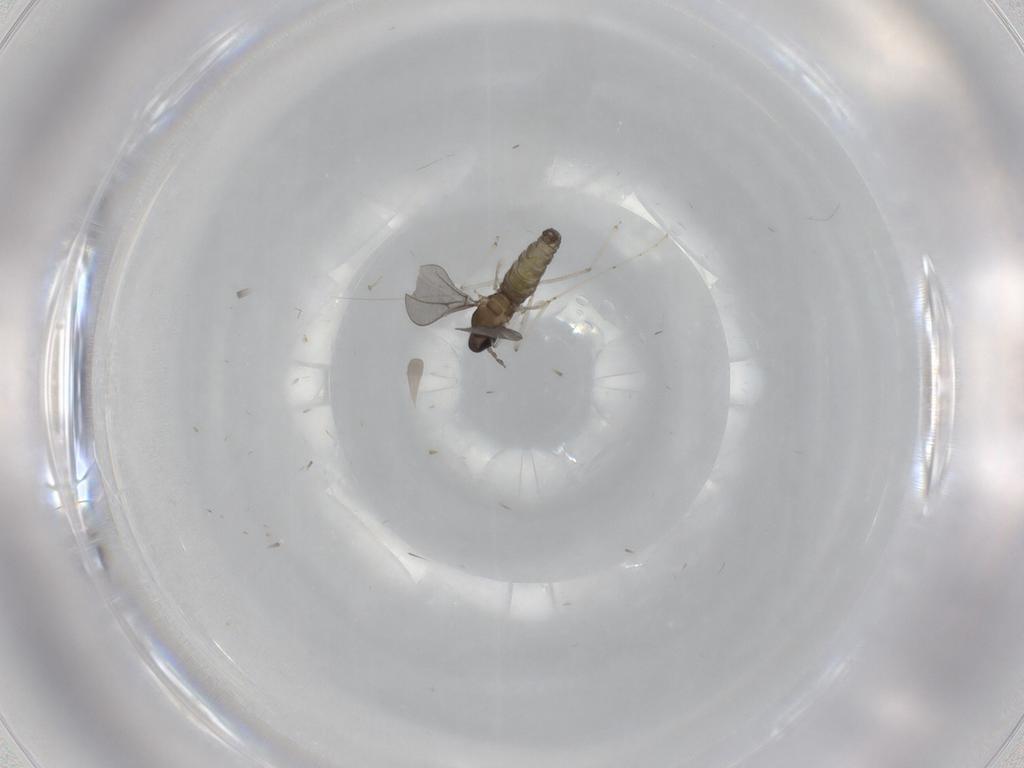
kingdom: Animalia
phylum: Arthropoda
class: Insecta
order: Diptera
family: Cecidomyiidae
